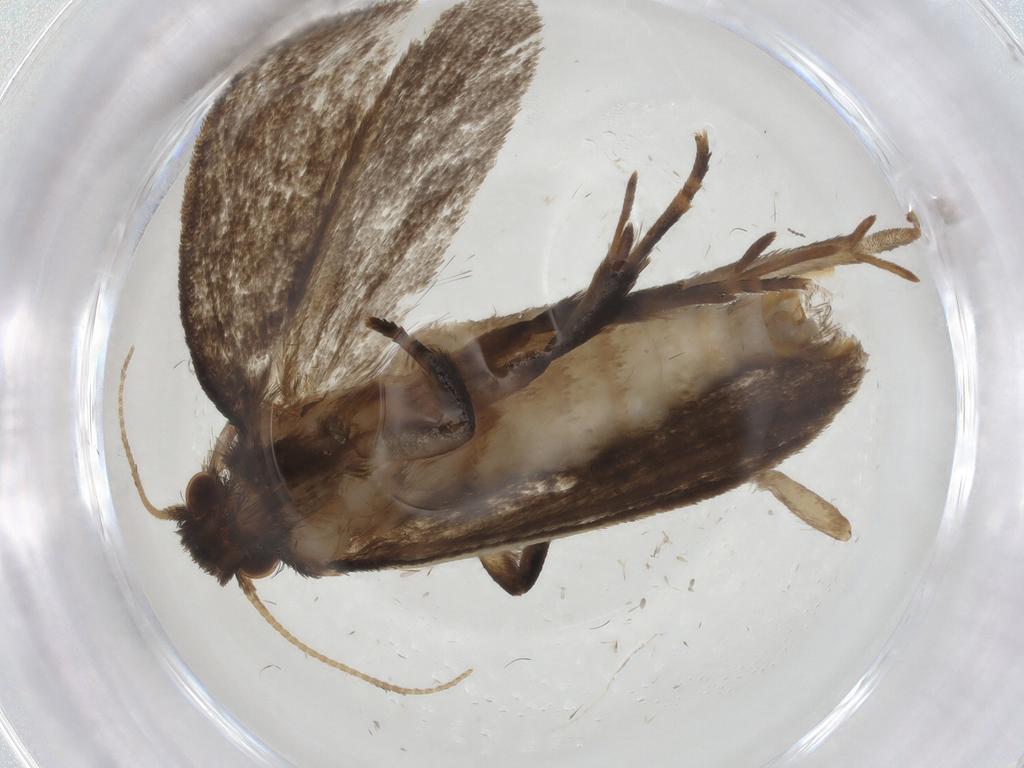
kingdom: Animalia
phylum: Arthropoda
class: Insecta
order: Lepidoptera
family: Tineidae
